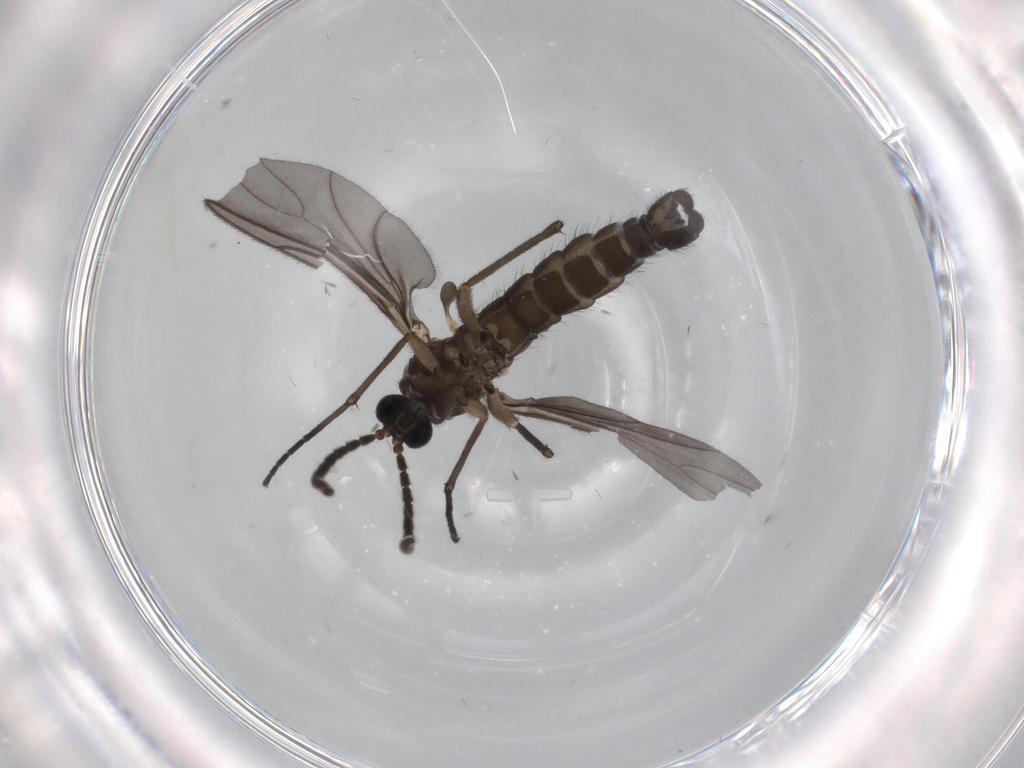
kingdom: Animalia
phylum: Arthropoda
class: Insecta
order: Diptera
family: Sciaridae
